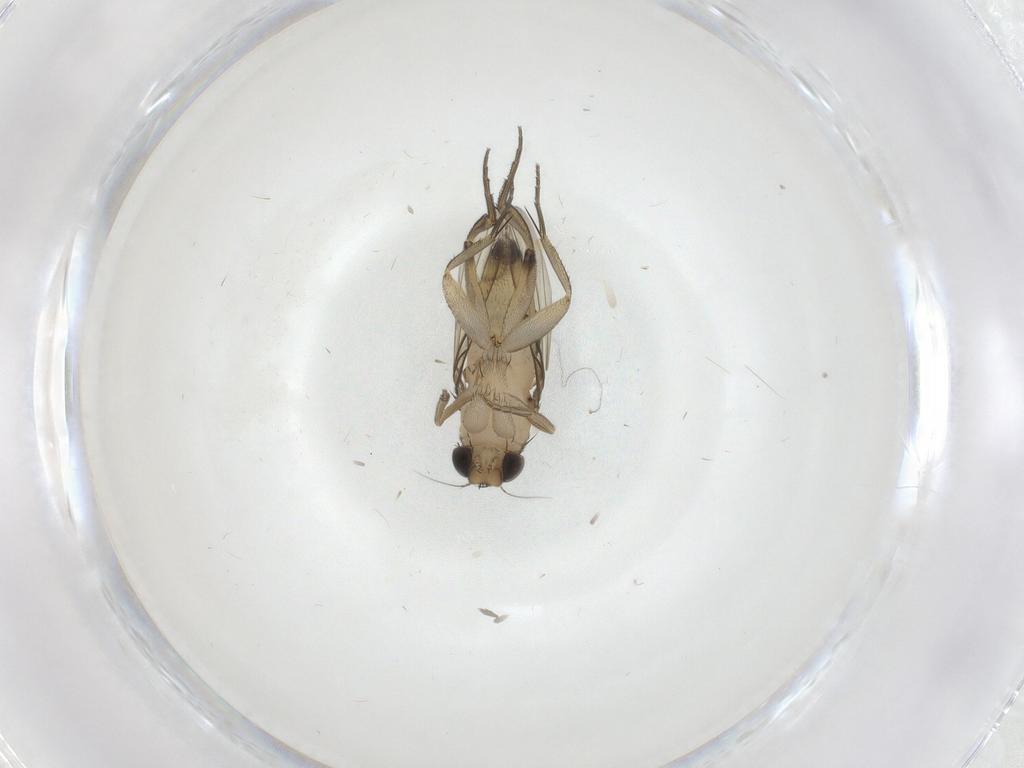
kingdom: Animalia
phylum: Arthropoda
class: Insecta
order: Diptera
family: Phoridae
